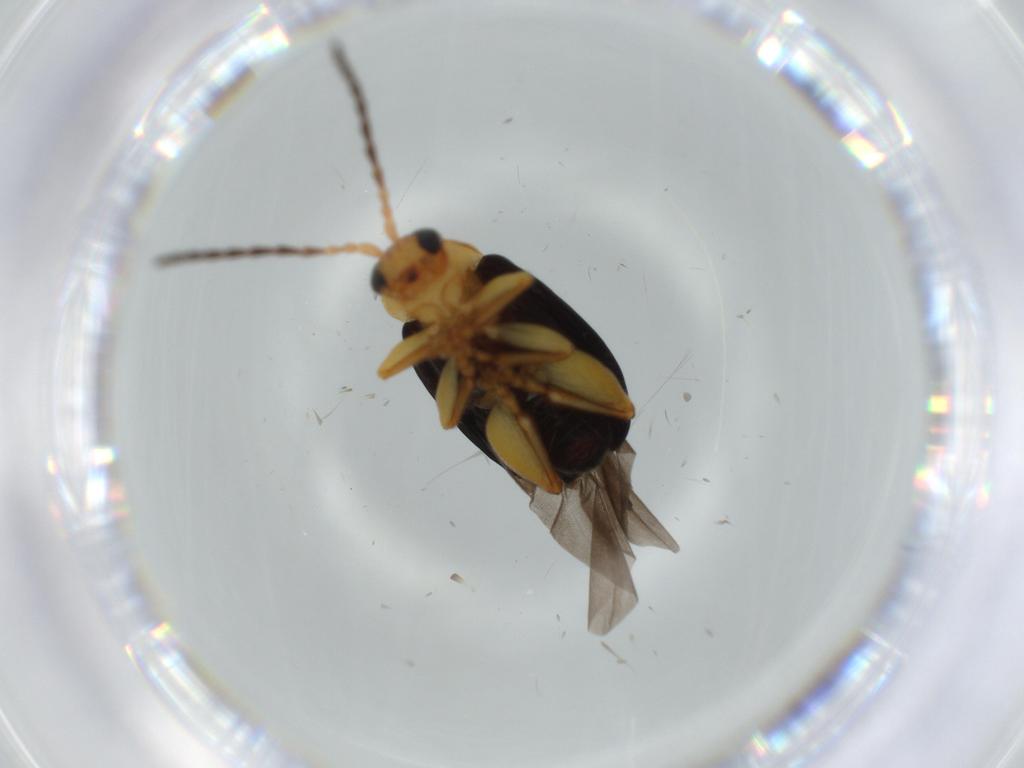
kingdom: Animalia
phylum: Arthropoda
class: Insecta
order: Coleoptera
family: Chrysomelidae
